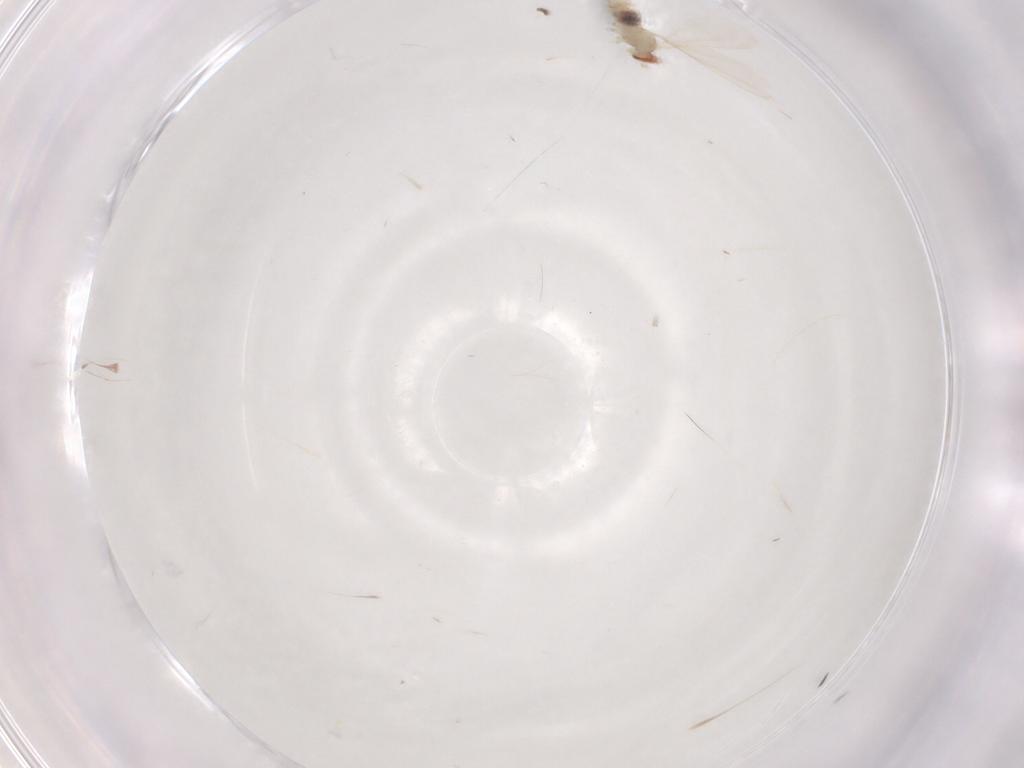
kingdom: Animalia
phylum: Arthropoda
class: Insecta
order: Diptera
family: Cecidomyiidae
